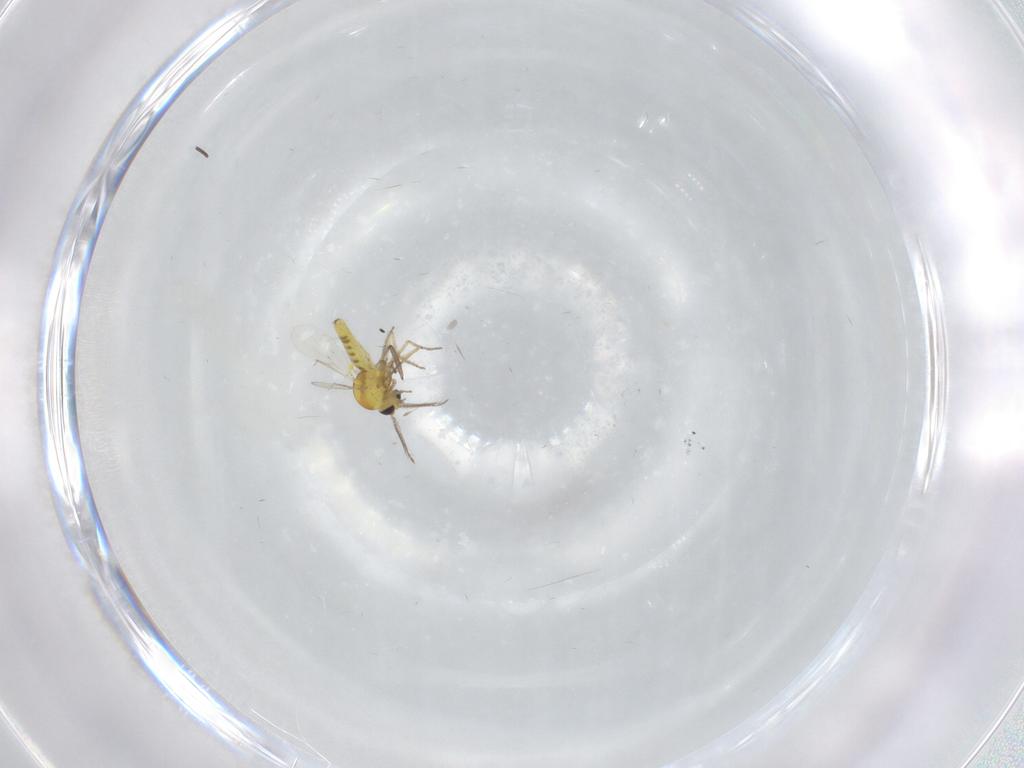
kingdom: Animalia
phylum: Arthropoda
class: Insecta
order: Diptera
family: Ceratopogonidae
